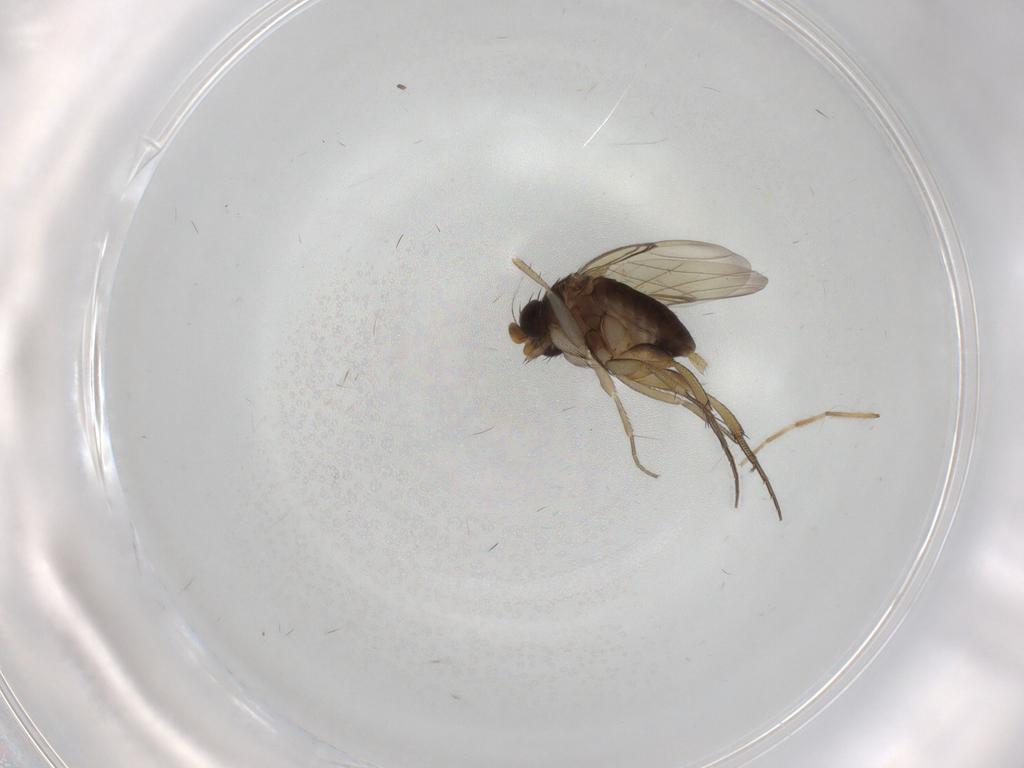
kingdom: Animalia
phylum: Arthropoda
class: Insecta
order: Diptera
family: Phoridae
